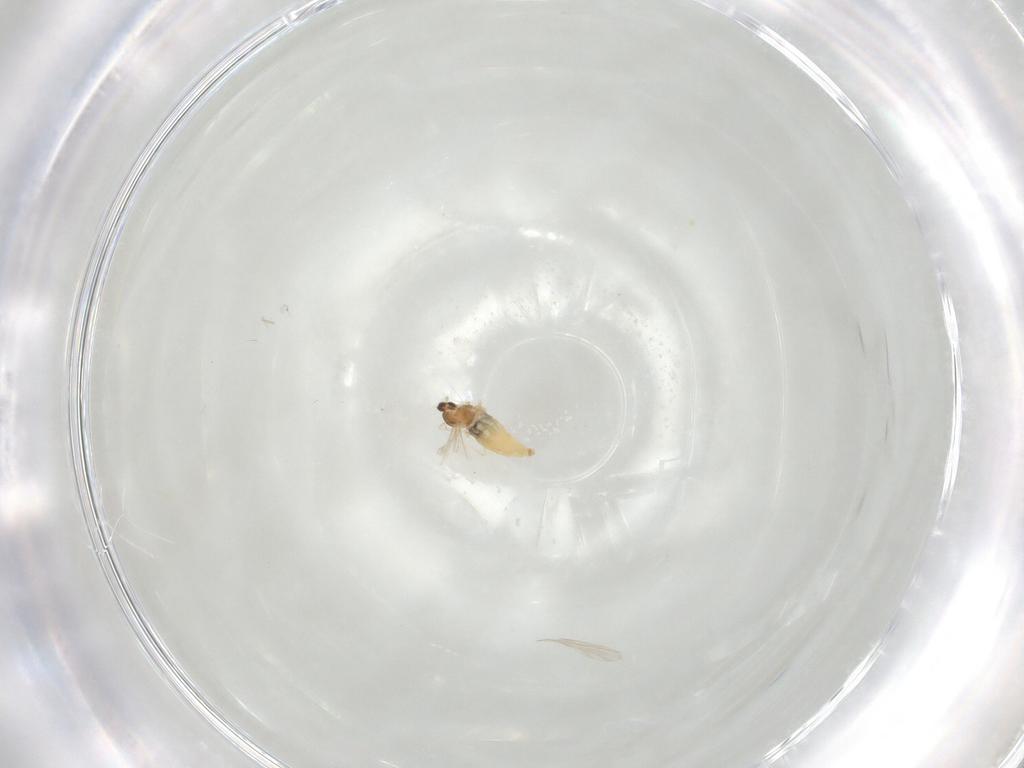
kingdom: Animalia
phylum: Arthropoda
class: Insecta
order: Diptera
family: Cecidomyiidae
